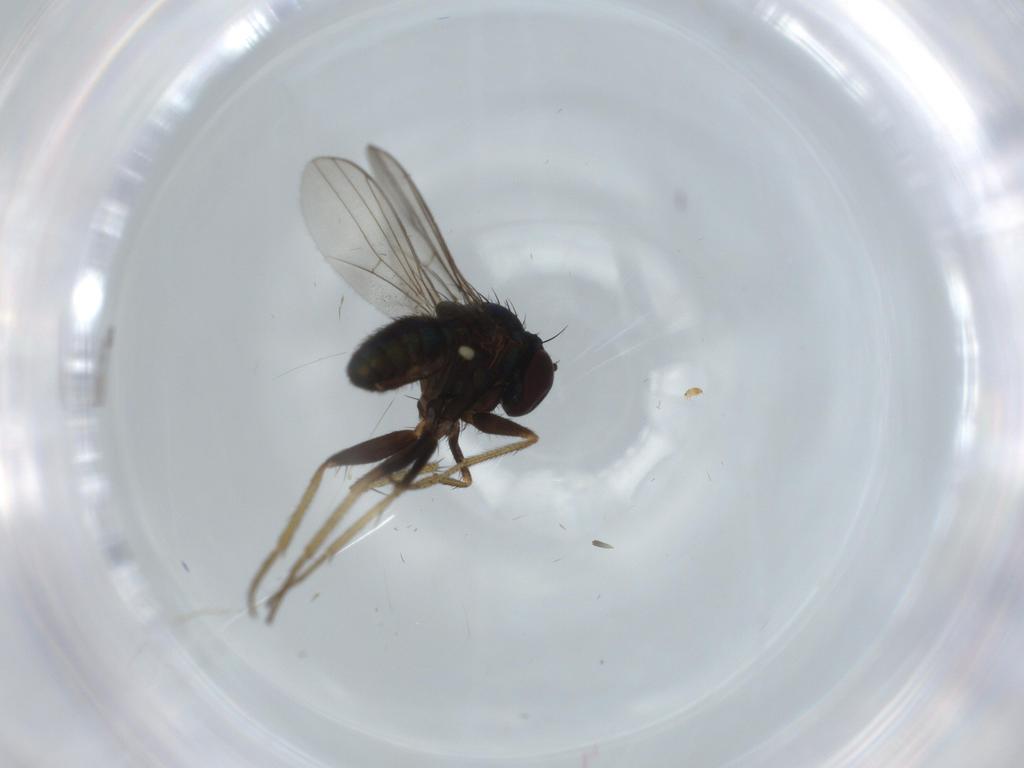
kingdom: Animalia
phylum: Arthropoda
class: Insecta
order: Diptera
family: Dolichopodidae
